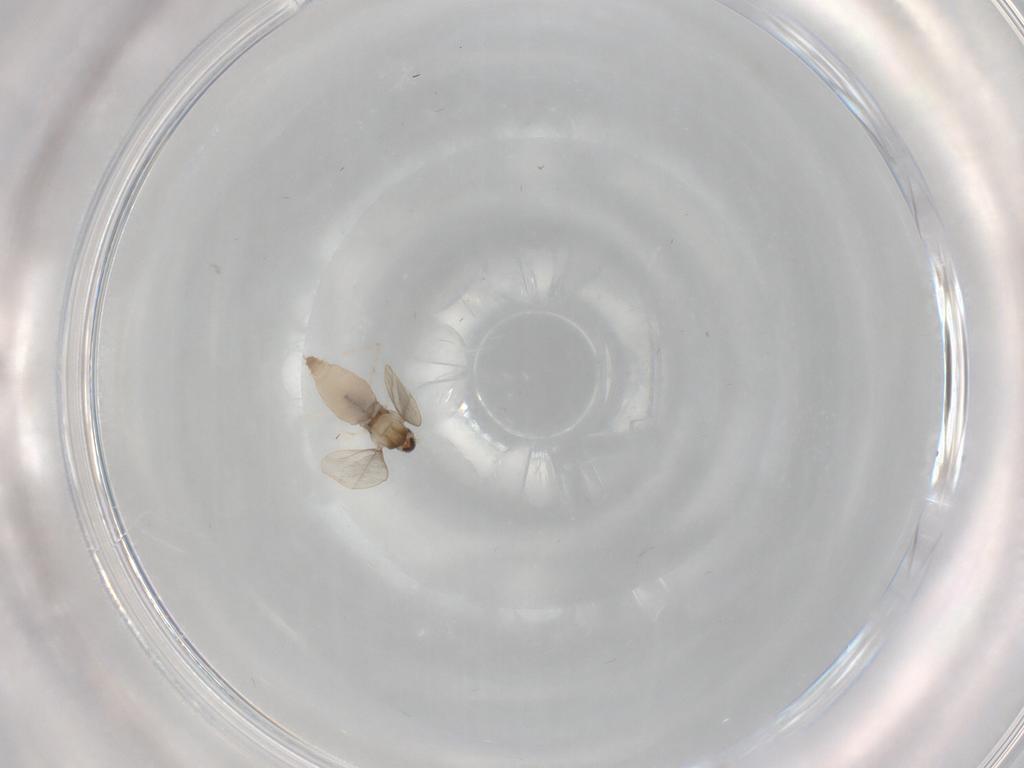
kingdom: Animalia
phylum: Arthropoda
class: Insecta
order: Diptera
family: Cecidomyiidae
